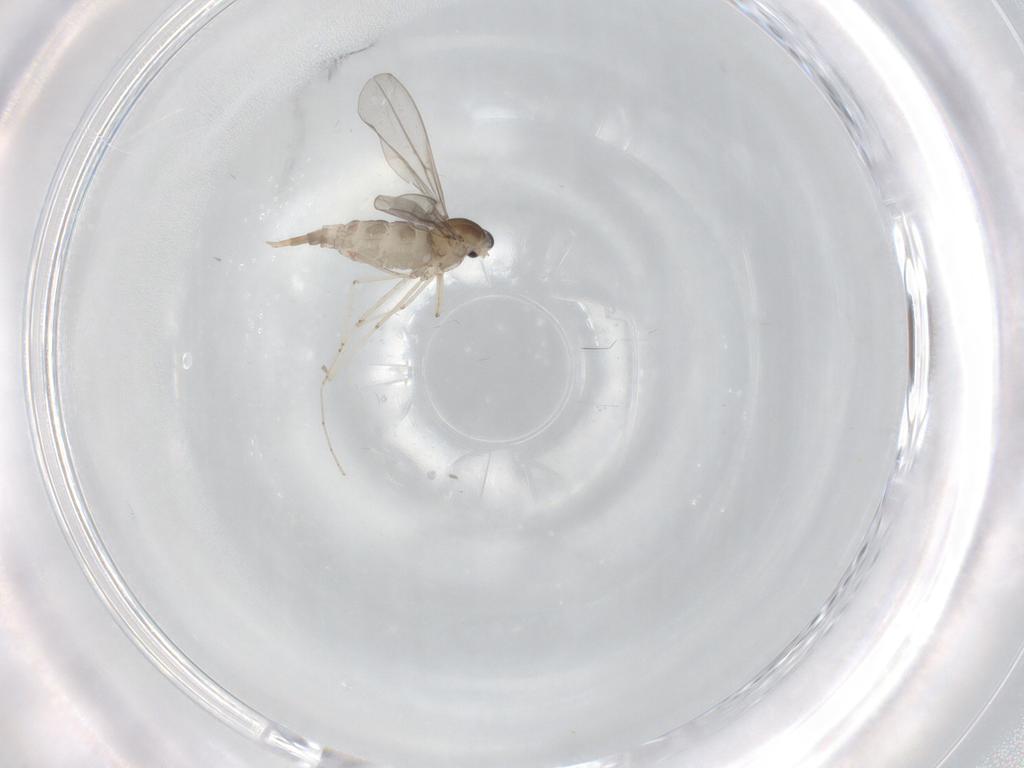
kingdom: Animalia
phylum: Arthropoda
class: Insecta
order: Diptera
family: Cecidomyiidae
